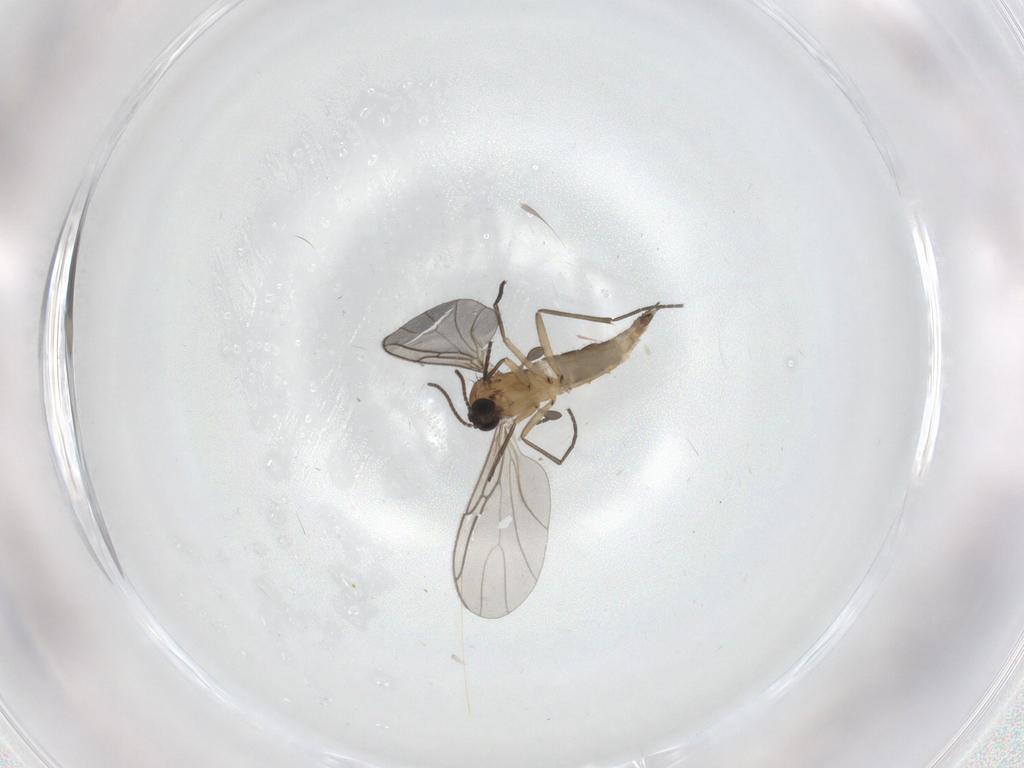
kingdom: Animalia
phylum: Arthropoda
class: Insecta
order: Diptera
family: Sciaridae
